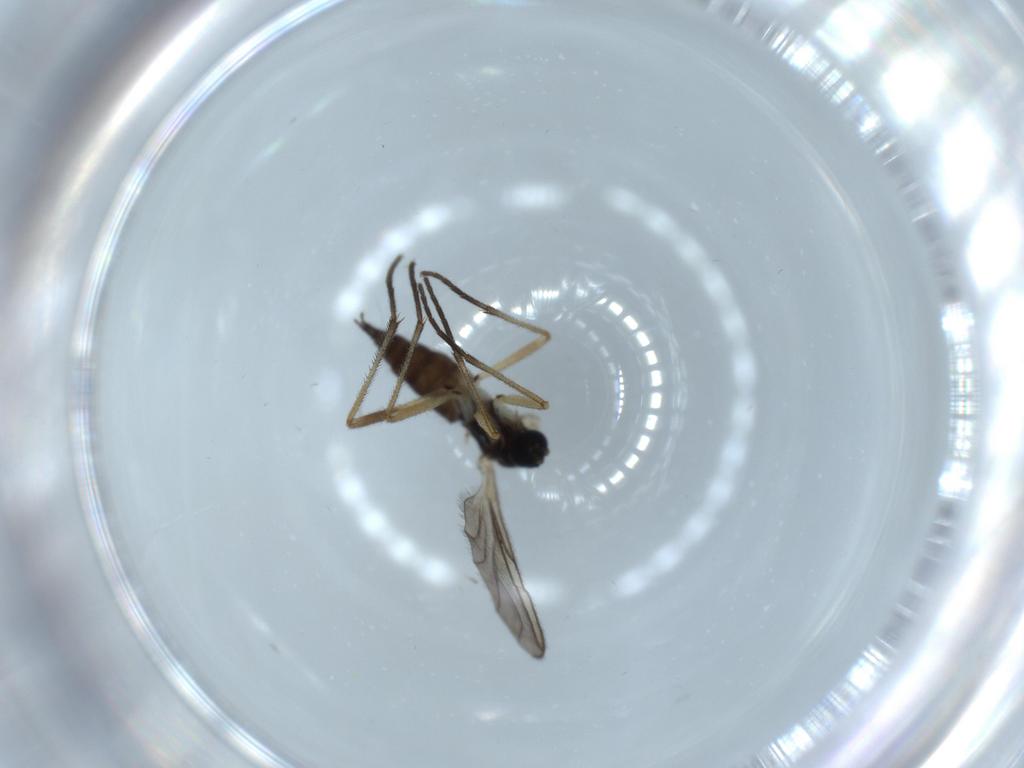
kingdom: Animalia
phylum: Arthropoda
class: Insecta
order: Diptera
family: Sciaridae
